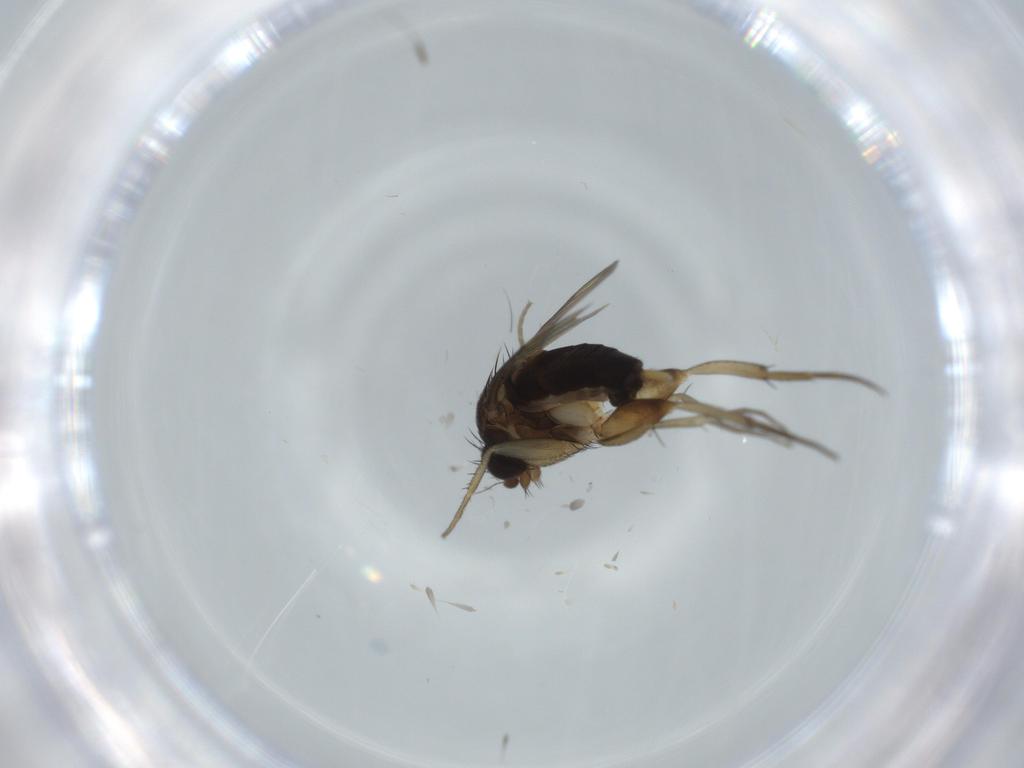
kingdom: Animalia
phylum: Arthropoda
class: Insecta
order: Diptera
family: Phoridae
